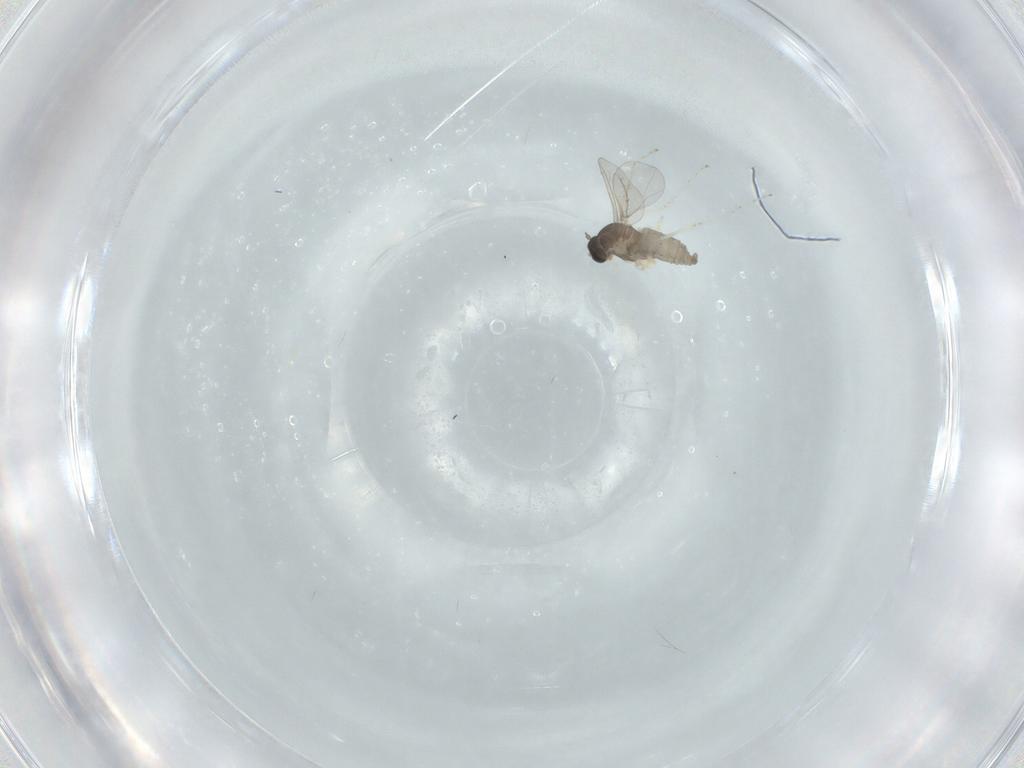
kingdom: Animalia
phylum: Arthropoda
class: Insecta
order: Diptera
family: Cecidomyiidae
